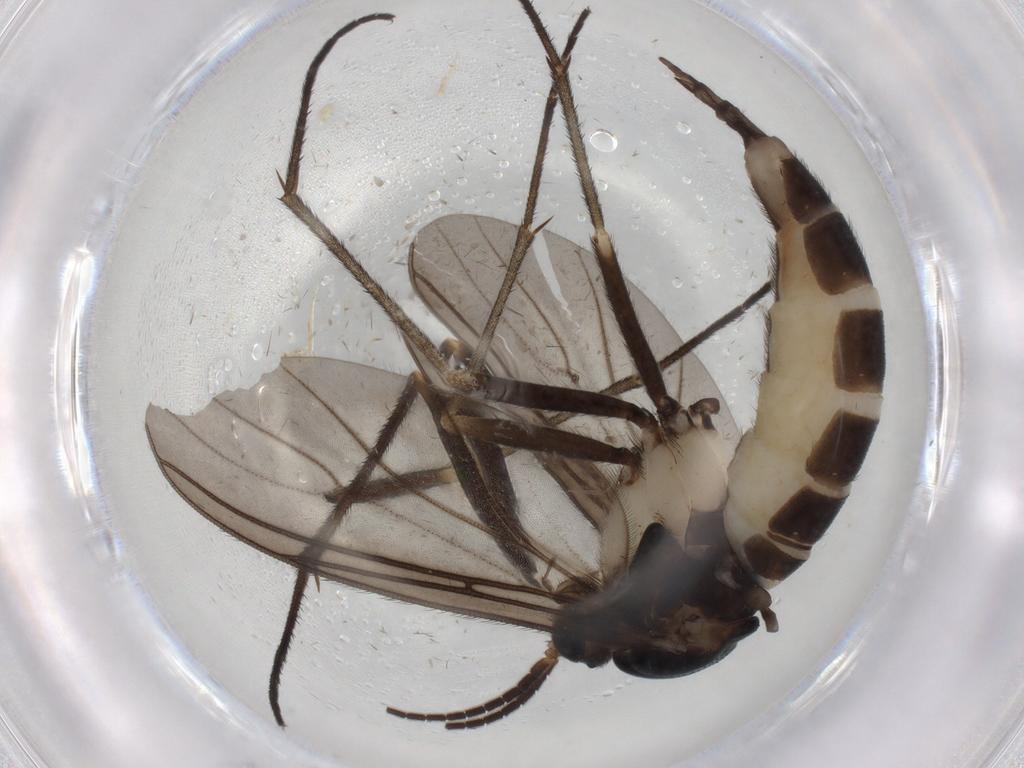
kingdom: Animalia
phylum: Arthropoda
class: Insecta
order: Diptera
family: Sciaridae
